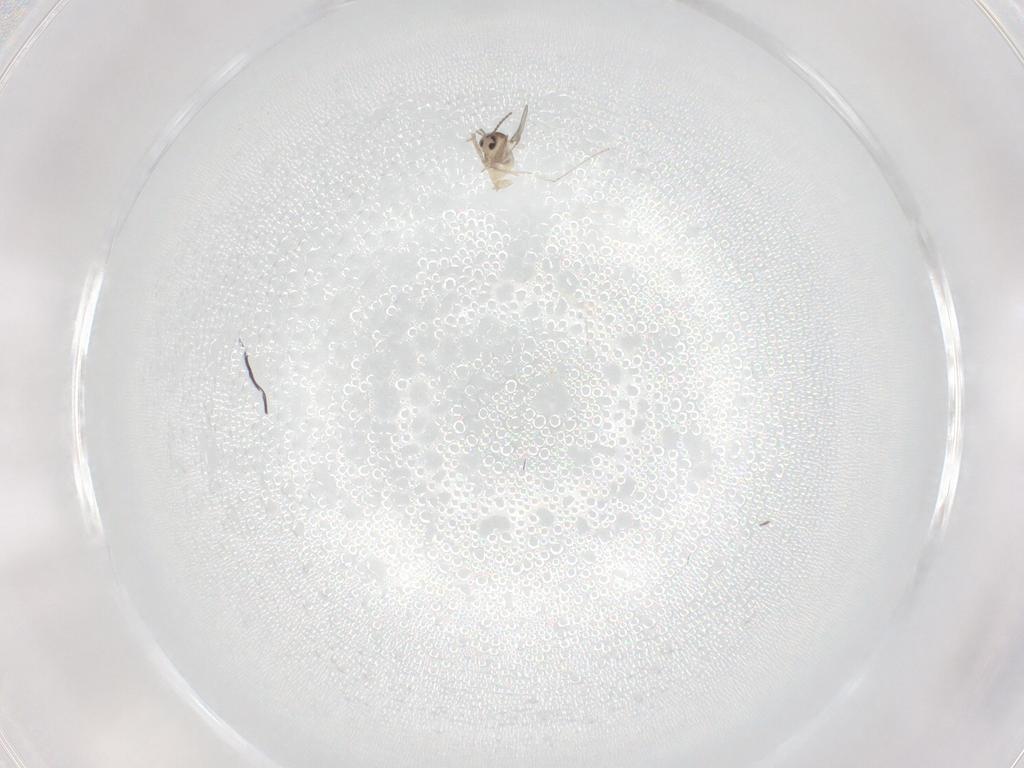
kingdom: Animalia
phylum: Arthropoda
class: Insecta
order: Diptera
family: Cecidomyiidae
